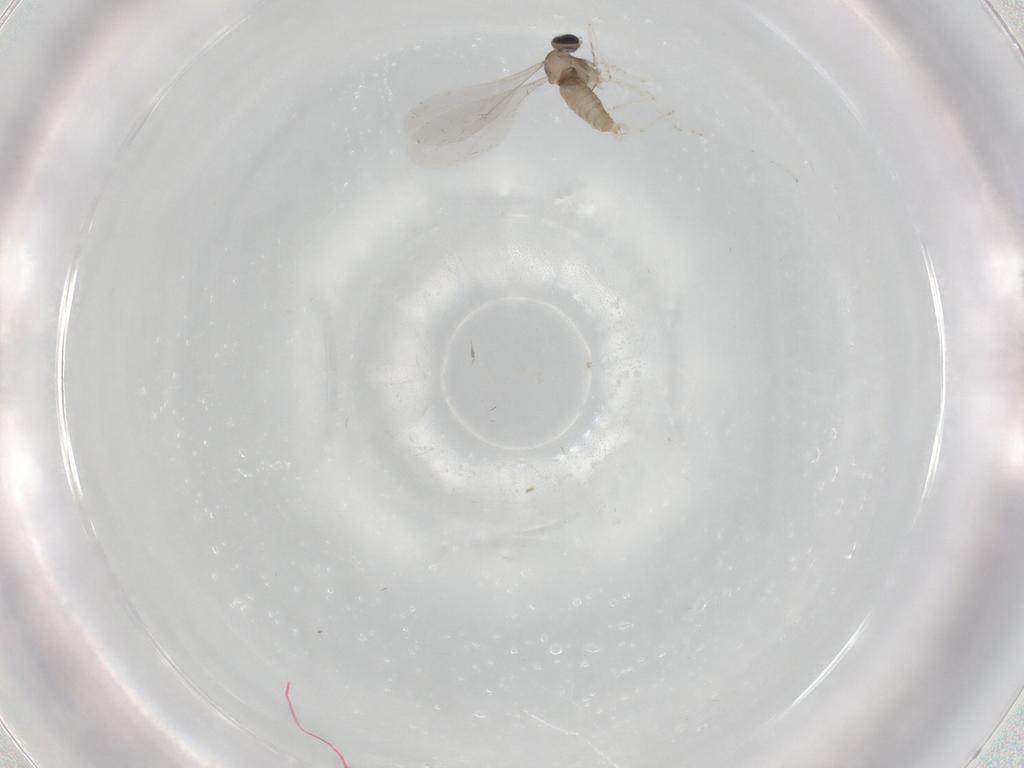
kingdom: Animalia
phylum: Arthropoda
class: Insecta
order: Diptera
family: Cecidomyiidae
